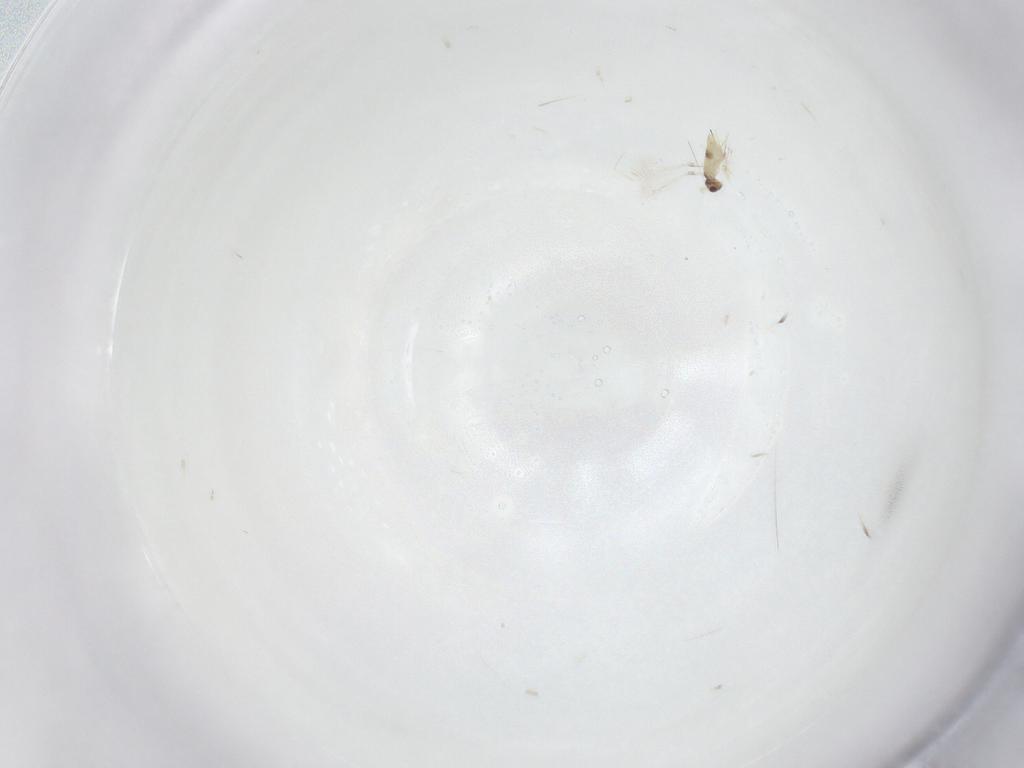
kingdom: Animalia
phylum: Arthropoda
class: Insecta
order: Hymenoptera
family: Mymaridae
